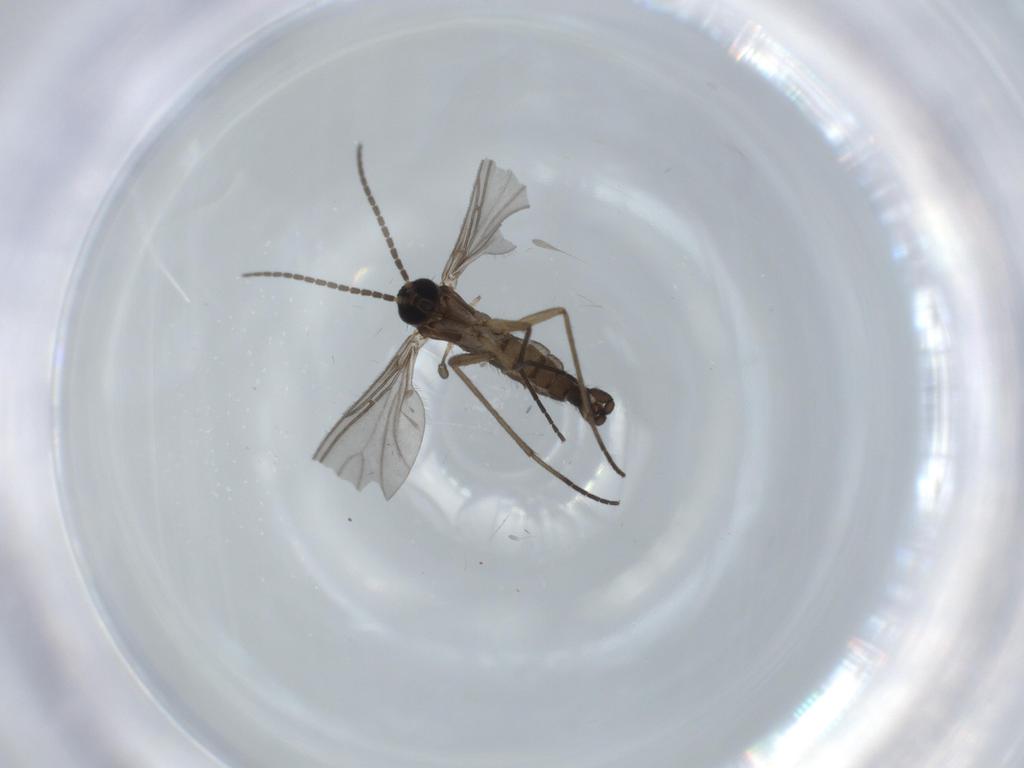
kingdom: Animalia
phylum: Arthropoda
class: Insecta
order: Diptera
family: Sciaridae
